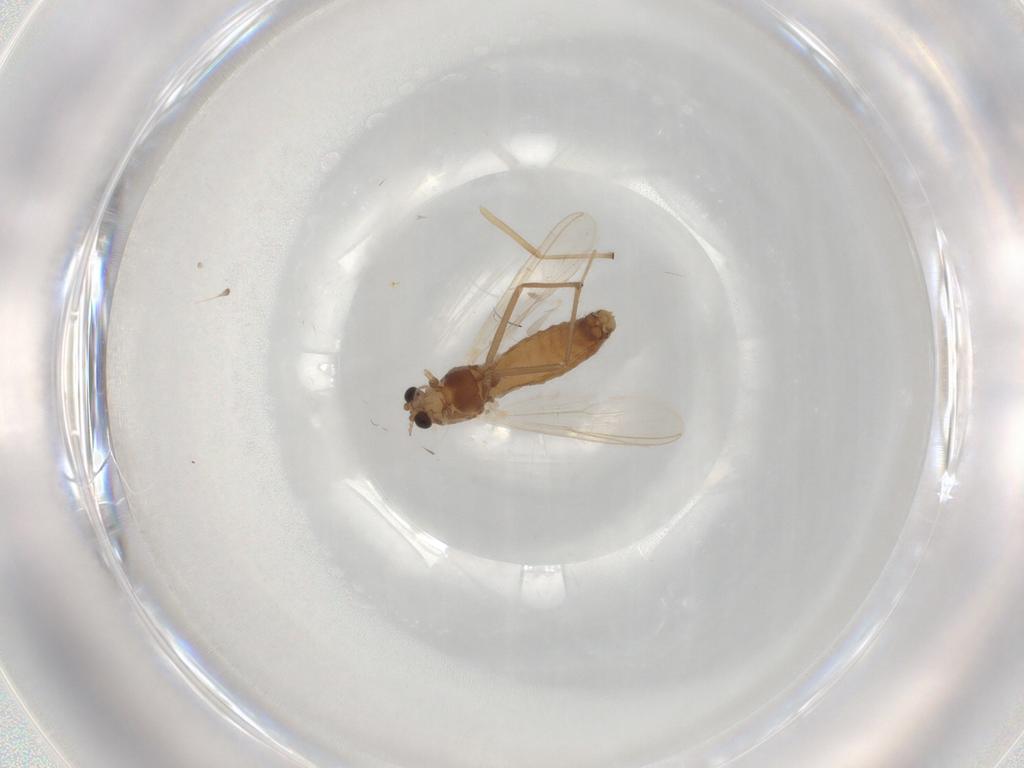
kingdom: Animalia
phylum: Arthropoda
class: Insecta
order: Diptera
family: Chironomidae
